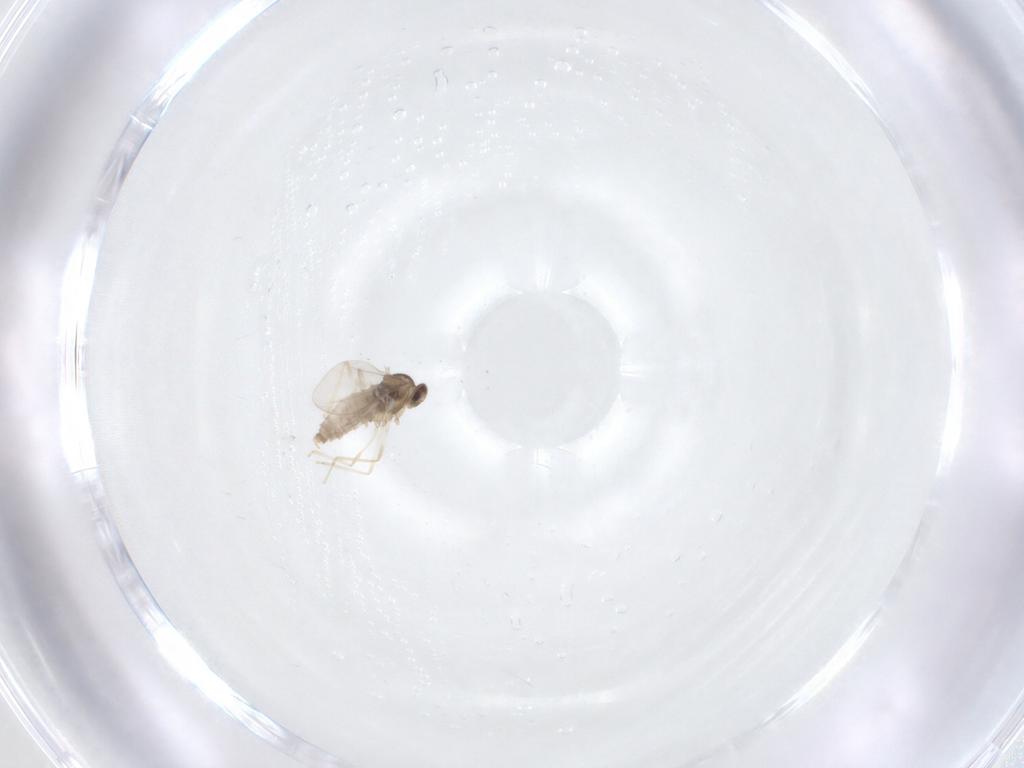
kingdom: Animalia
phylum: Arthropoda
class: Insecta
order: Diptera
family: Cecidomyiidae
